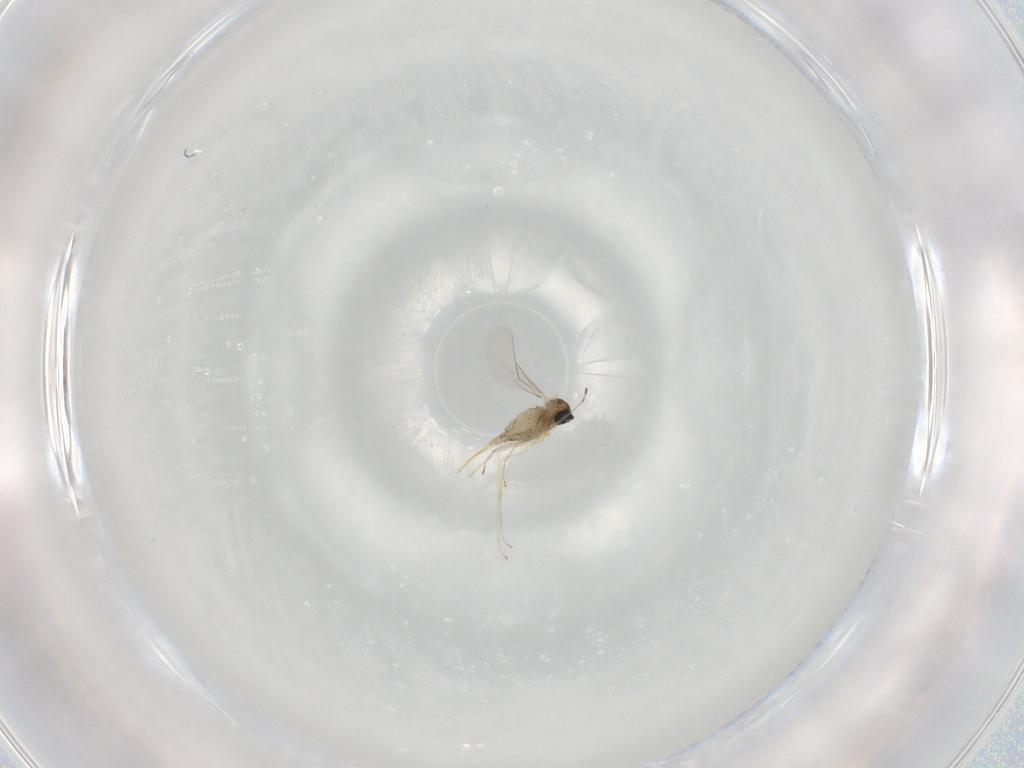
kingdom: Animalia
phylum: Arthropoda
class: Insecta
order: Diptera
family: Cecidomyiidae
